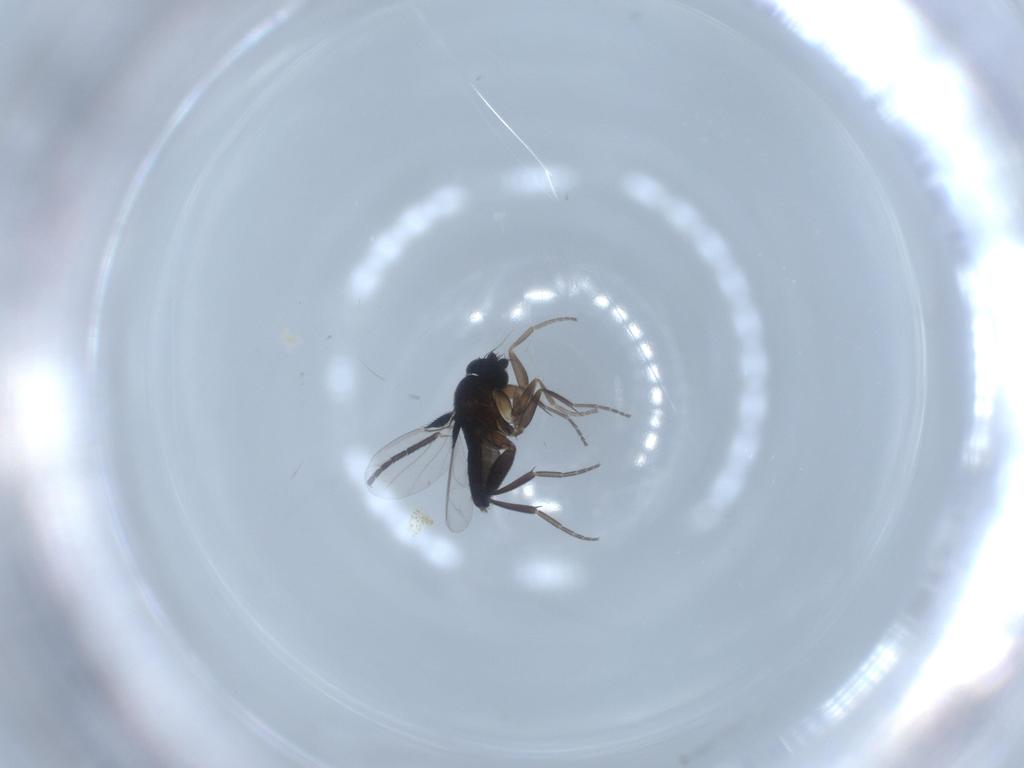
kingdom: Animalia
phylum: Arthropoda
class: Insecta
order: Diptera
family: Sciaridae
